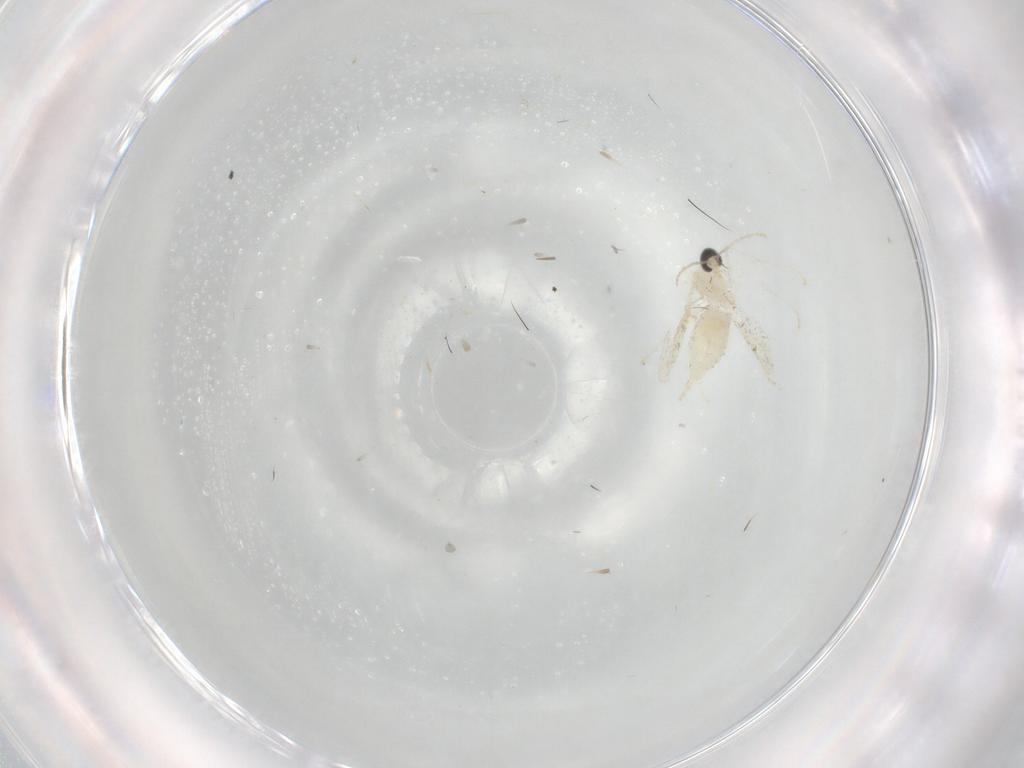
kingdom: Animalia
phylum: Arthropoda
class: Insecta
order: Diptera
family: Cecidomyiidae
